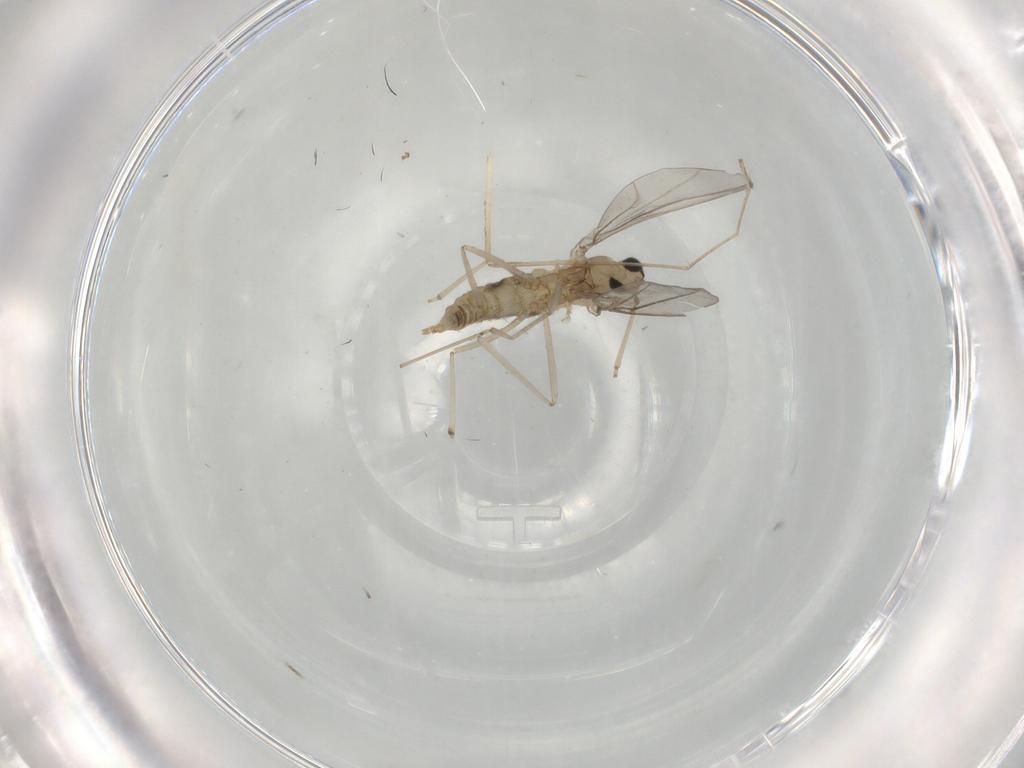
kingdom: Animalia
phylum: Arthropoda
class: Insecta
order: Diptera
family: Cecidomyiidae
